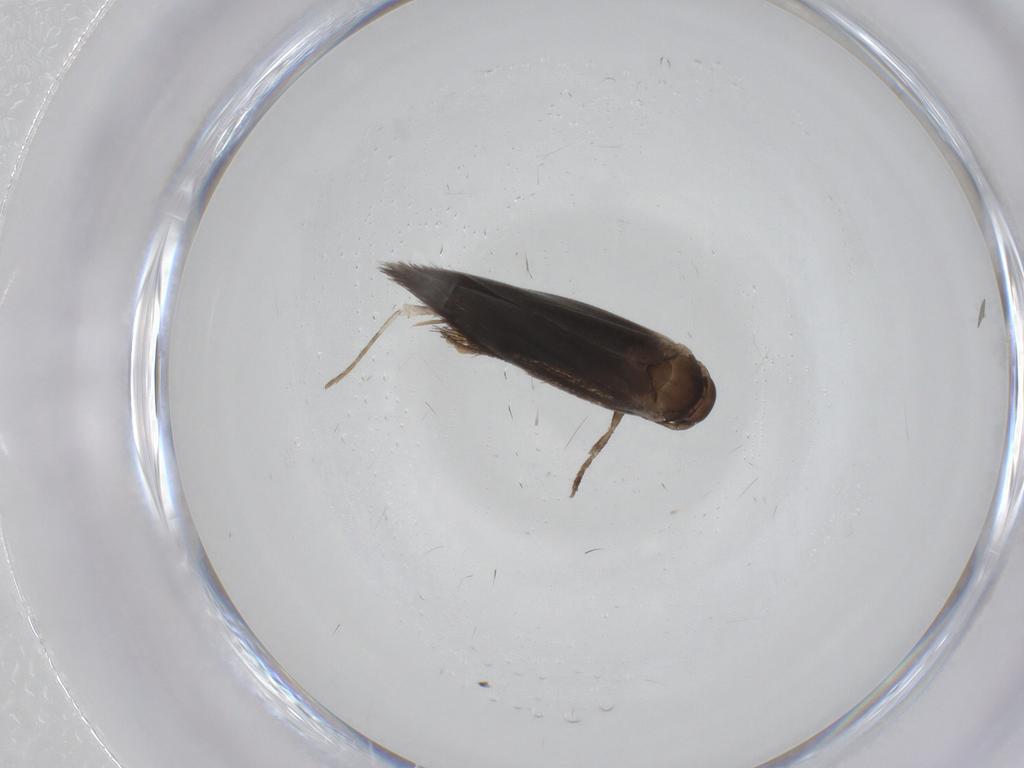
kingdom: Animalia
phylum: Arthropoda
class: Insecta
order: Lepidoptera
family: Elachistidae
